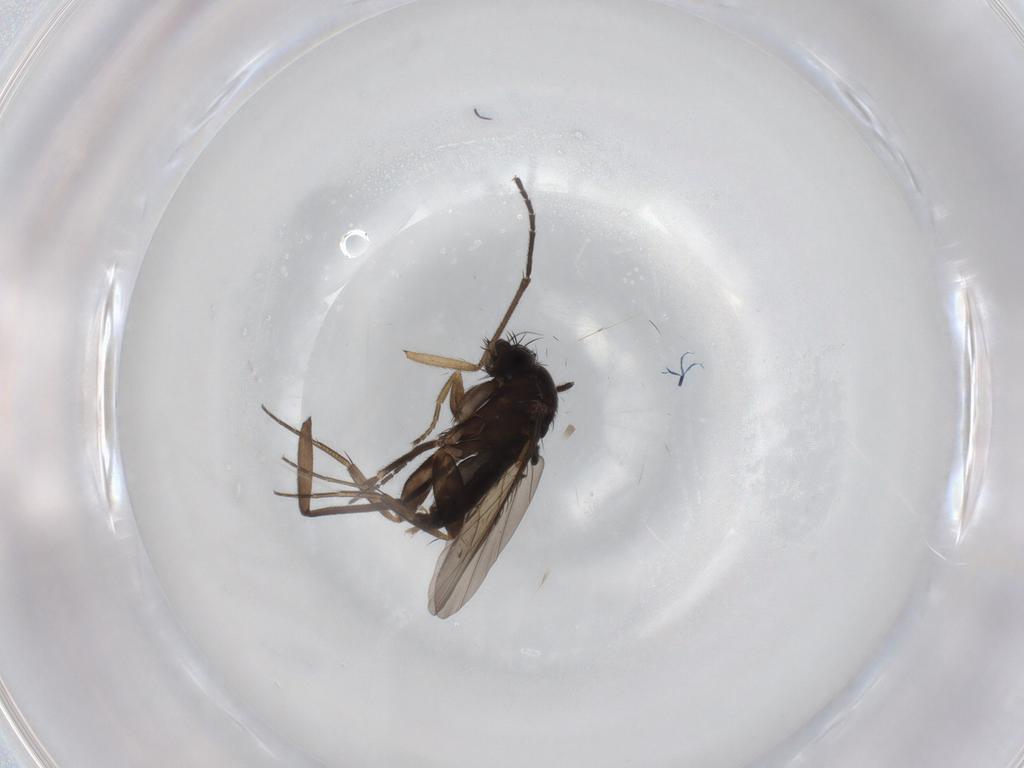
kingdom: Animalia
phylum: Arthropoda
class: Insecta
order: Diptera
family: Phoridae
